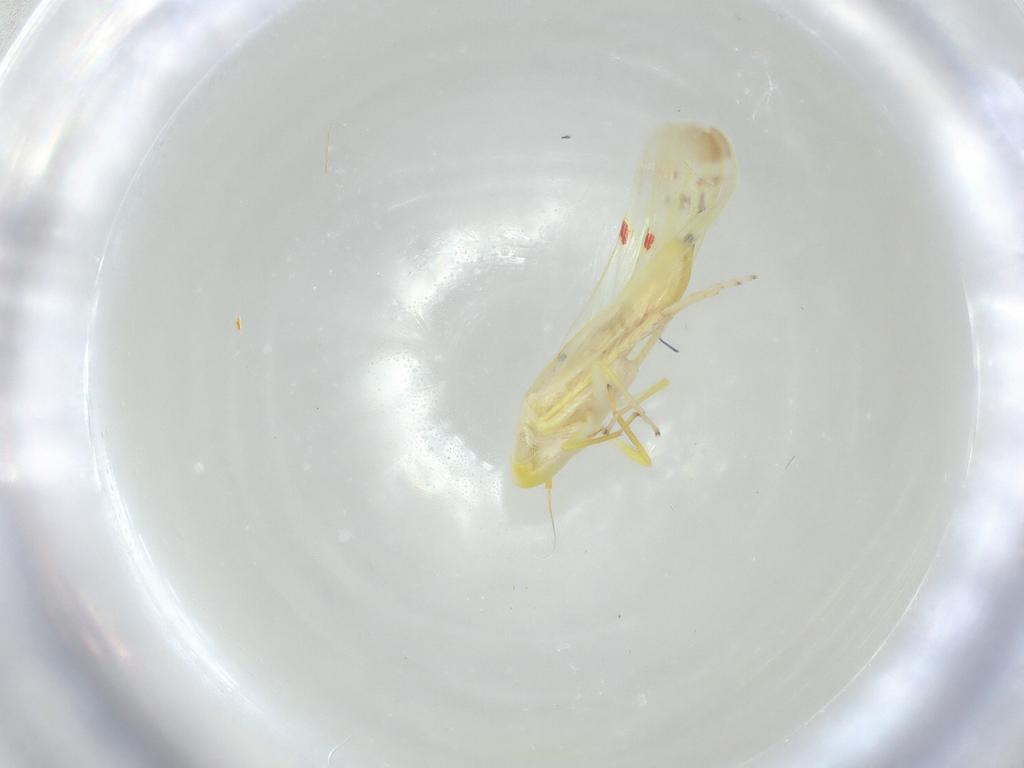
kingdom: Animalia
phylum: Arthropoda
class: Insecta
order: Hemiptera
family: Cicadellidae
